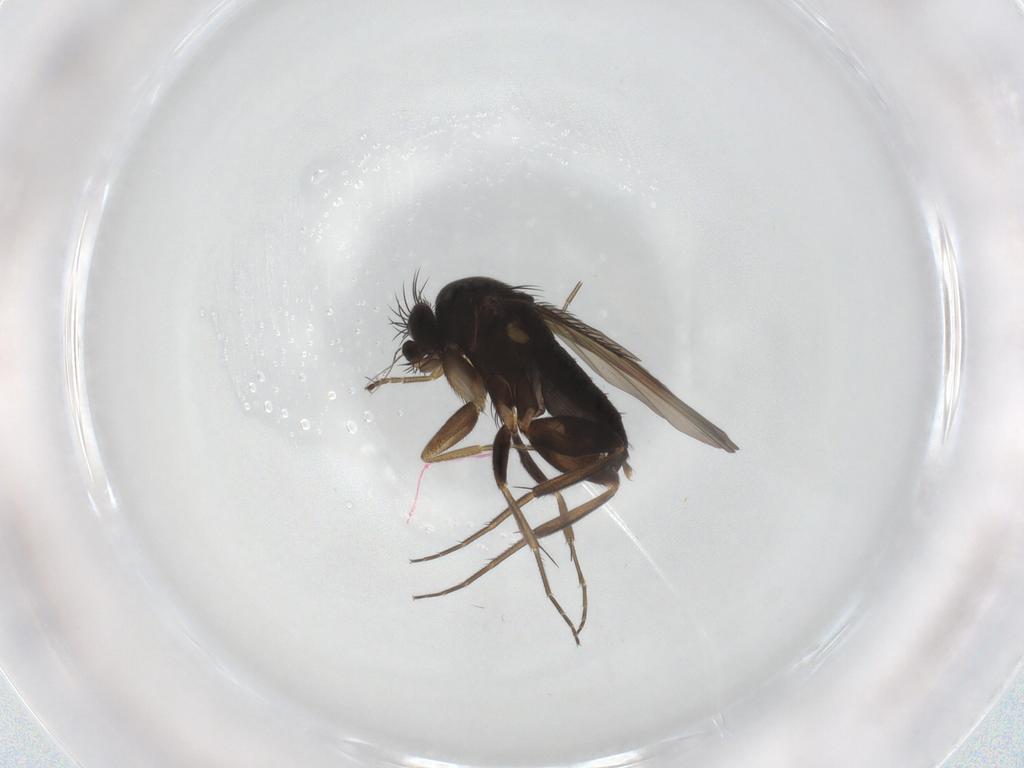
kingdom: Animalia
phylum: Arthropoda
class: Insecta
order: Diptera
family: Phoridae
